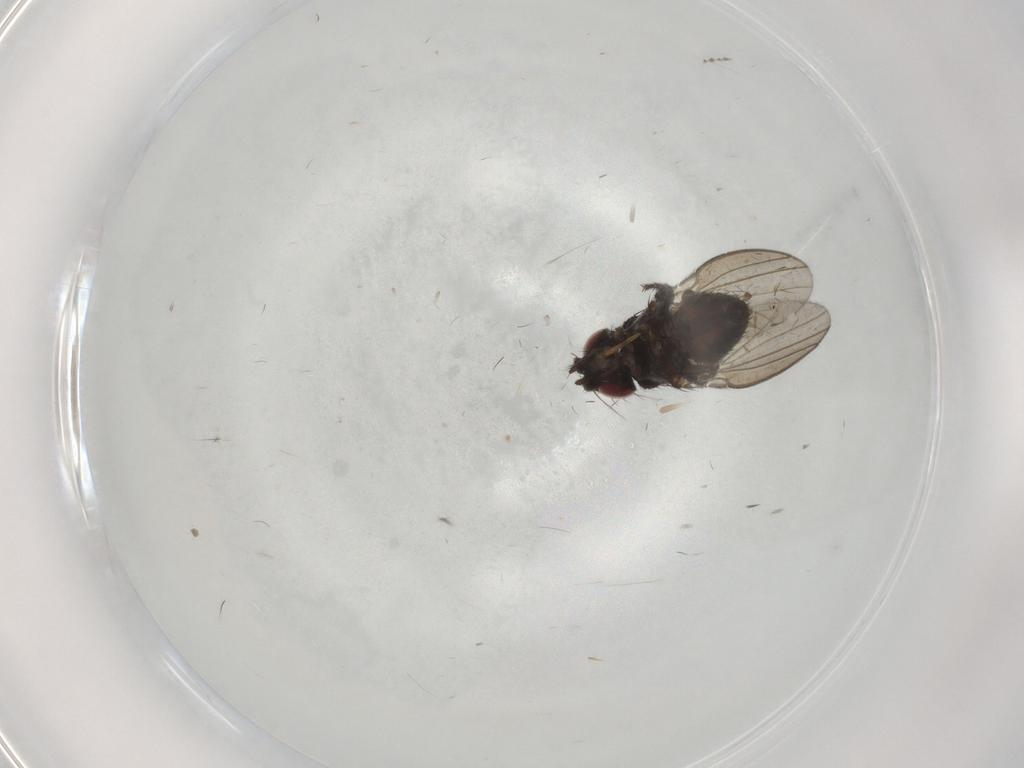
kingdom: Animalia
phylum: Arthropoda
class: Insecta
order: Diptera
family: Milichiidae
